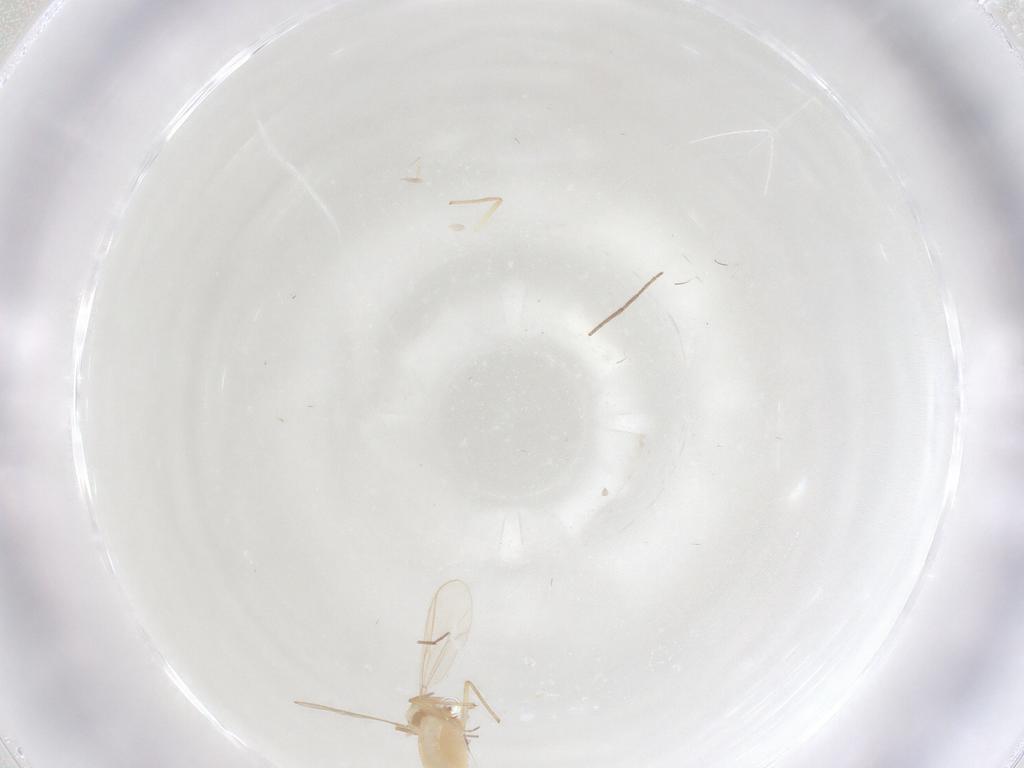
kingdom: Animalia
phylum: Arthropoda
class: Insecta
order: Diptera
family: Chironomidae
